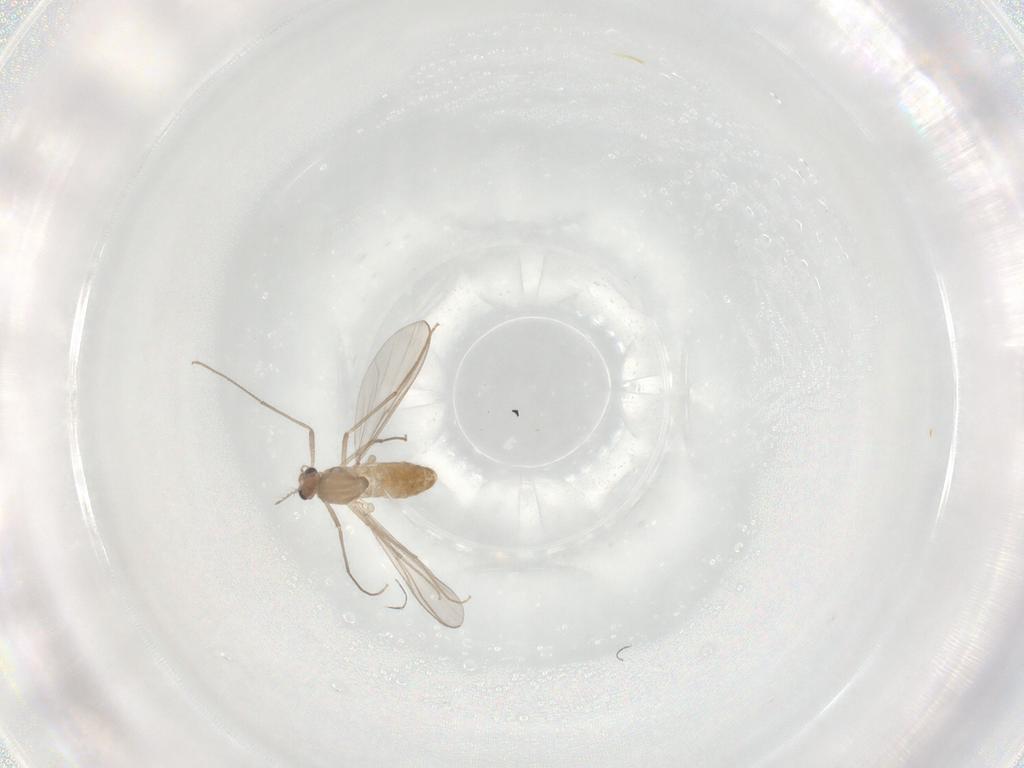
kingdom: Animalia
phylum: Arthropoda
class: Insecta
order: Diptera
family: Chironomidae
